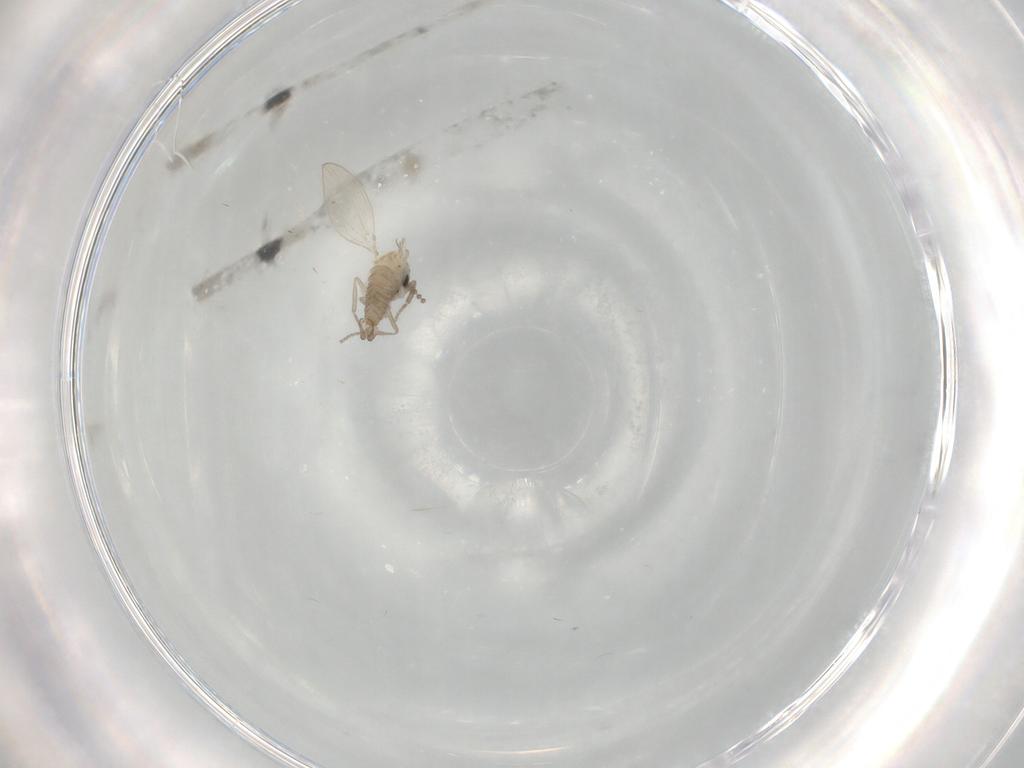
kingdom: Animalia
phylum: Arthropoda
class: Insecta
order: Diptera
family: Psychodidae
